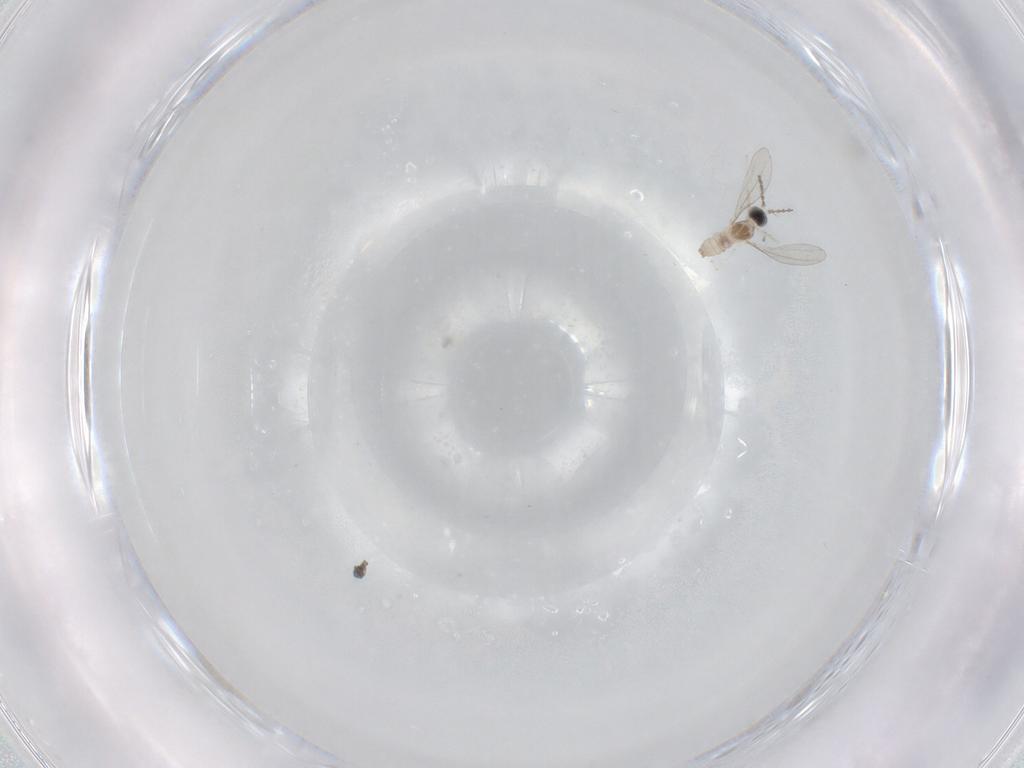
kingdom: Animalia
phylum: Arthropoda
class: Insecta
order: Diptera
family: Cecidomyiidae
